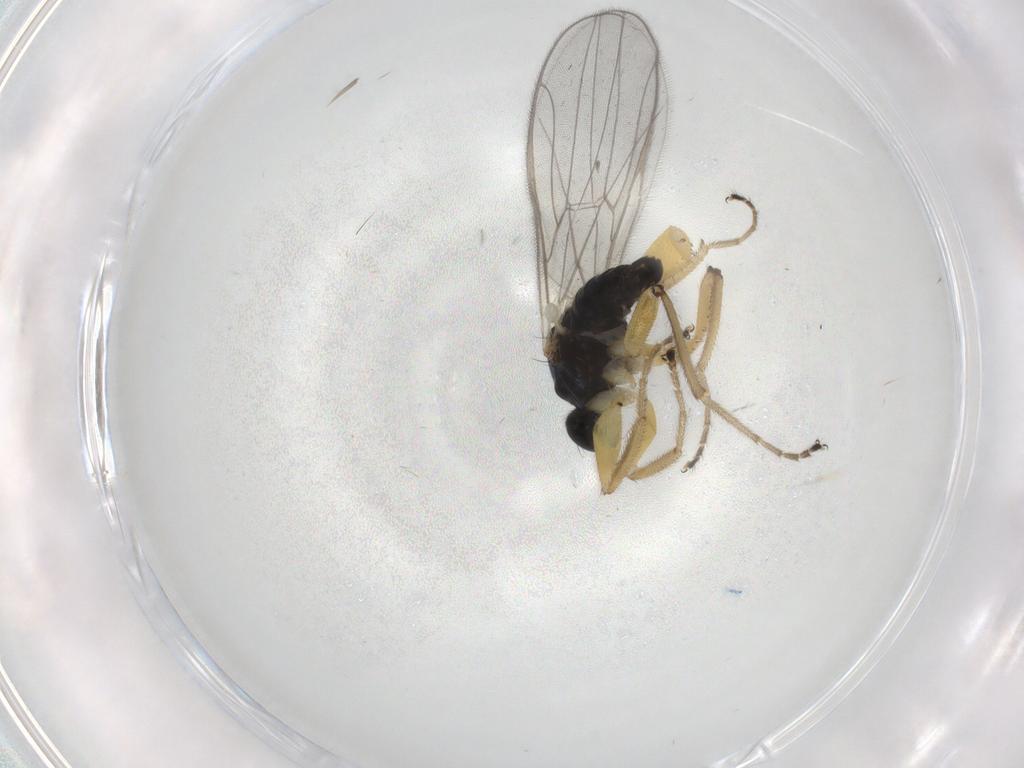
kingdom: Animalia
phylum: Arthropoda
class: Insecta
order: Diptera
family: Hybotidae
